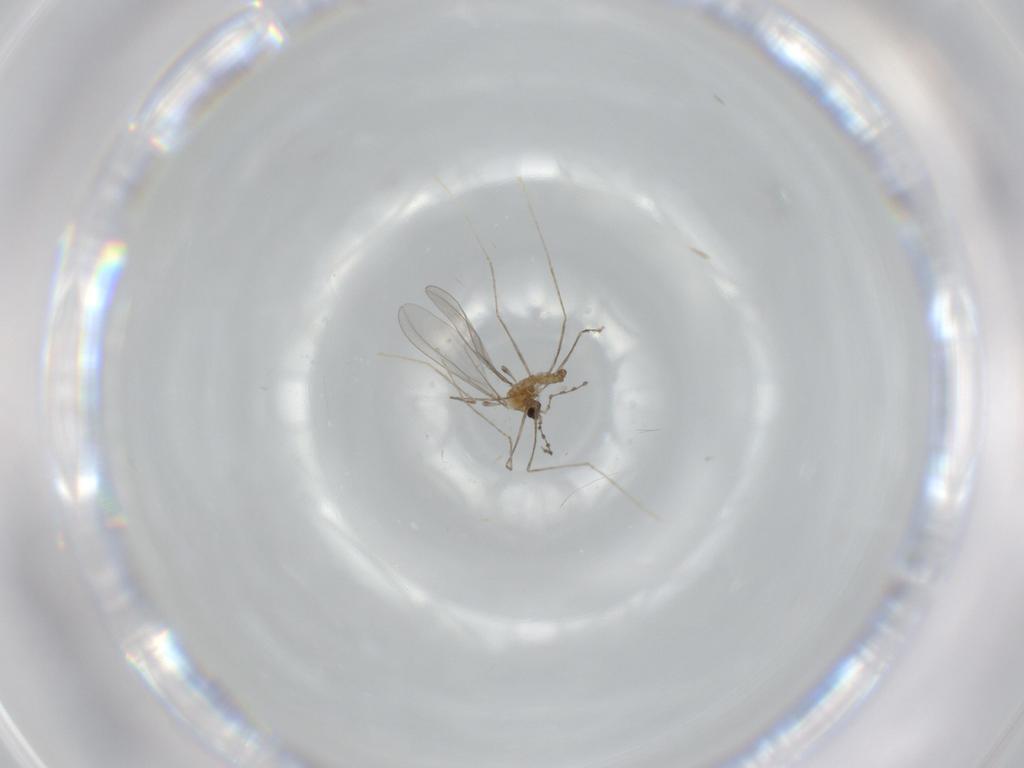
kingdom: Animalia
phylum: Arthropoda
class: Insecta
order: Diptera
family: Cecidomyiidae
